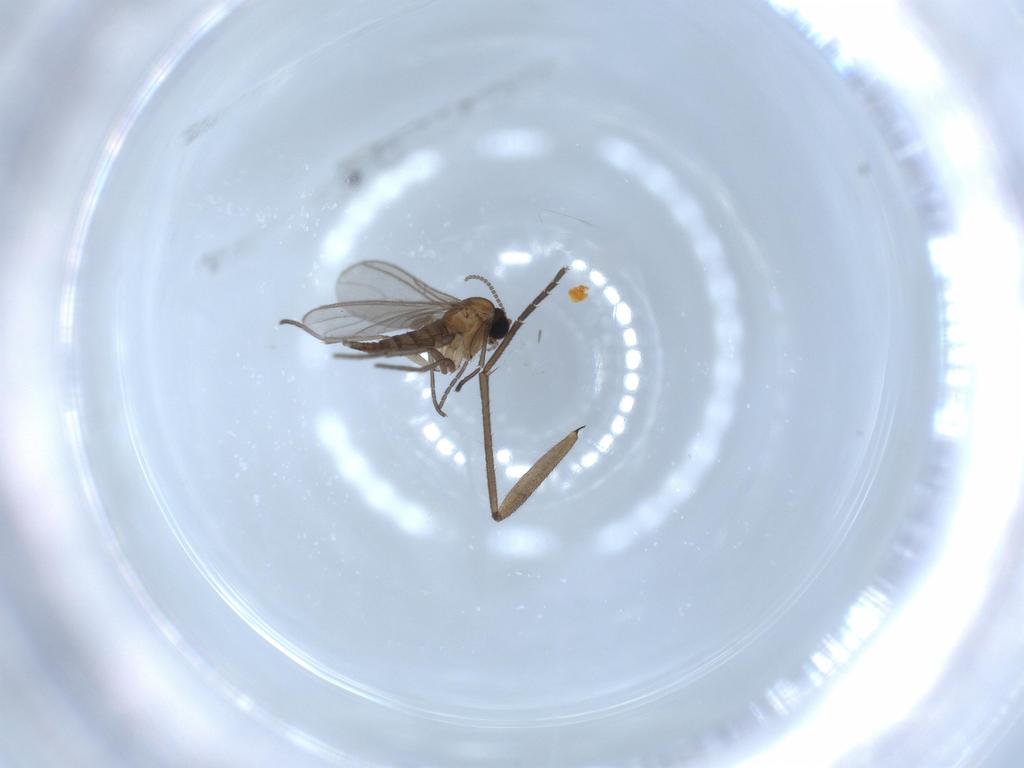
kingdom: Animalia
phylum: Arthropoda
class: Insecta
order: Diptera
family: Sciaridae
